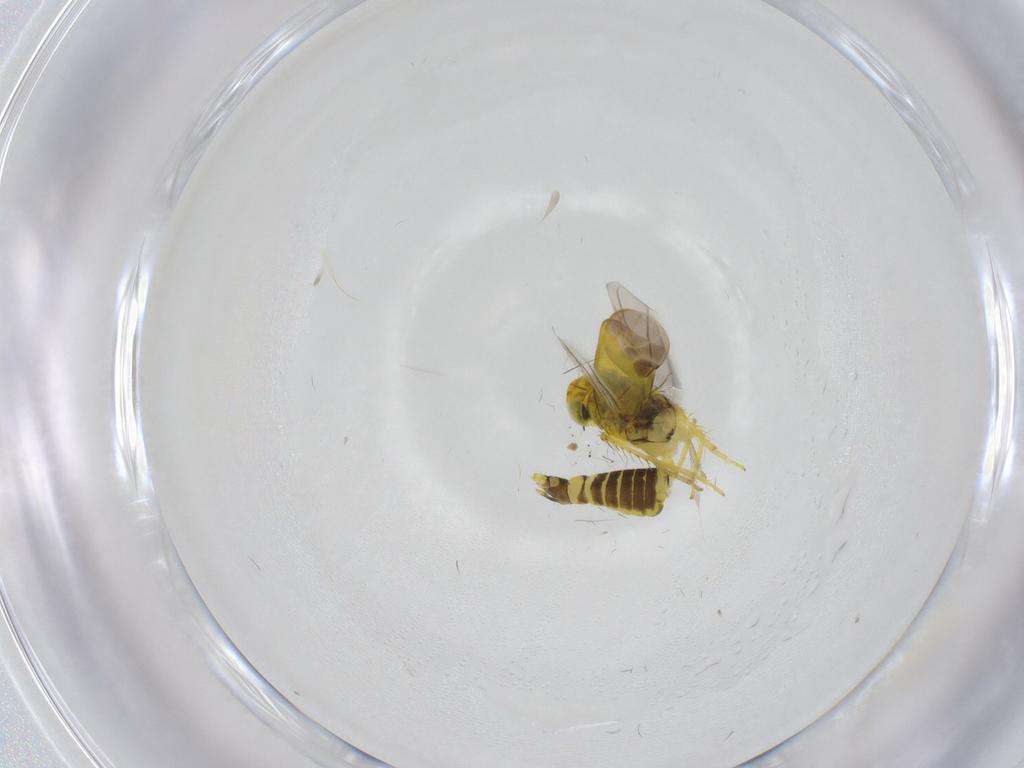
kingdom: Animalia
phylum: Arthropoda
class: Insecta
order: Hemiptera
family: Cicadellidae
